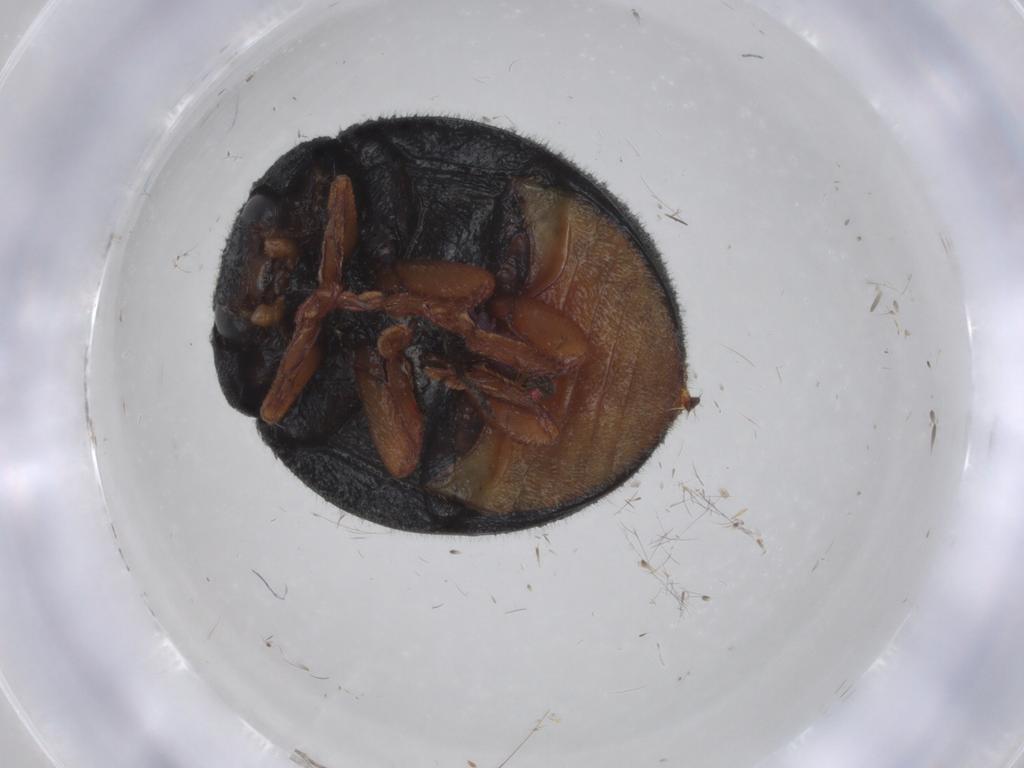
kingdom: Animalia
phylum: Arthropoda
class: Insecta
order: Coleoptera
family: Coccinellidae
